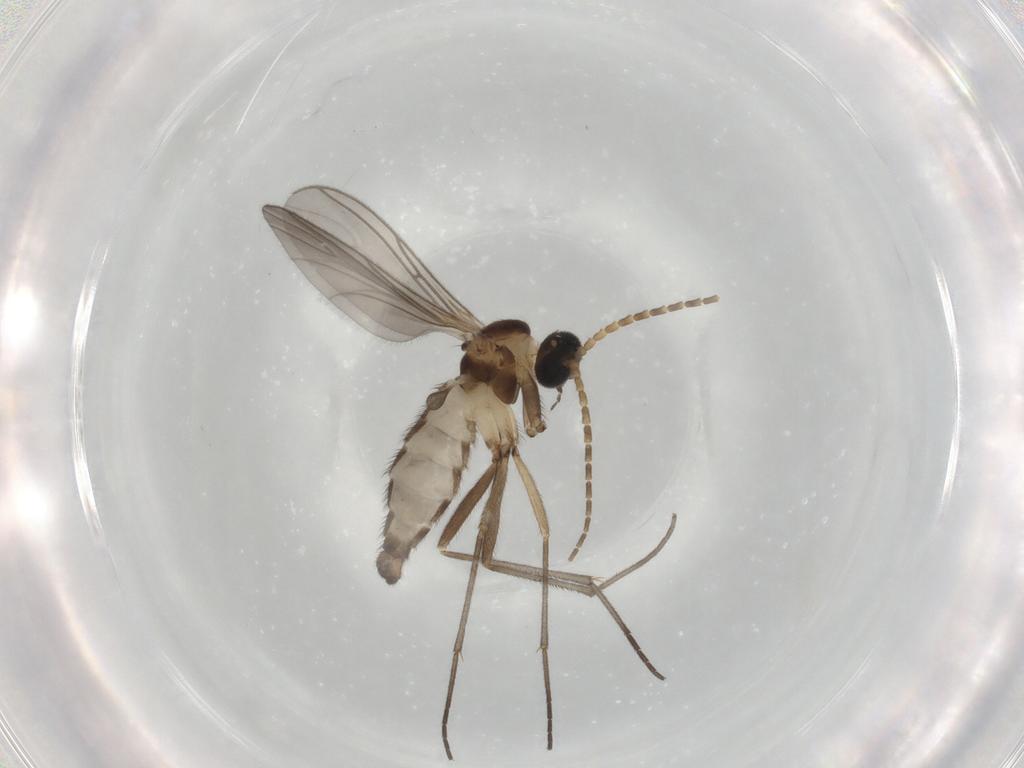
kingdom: Animalia
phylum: Arthropoda
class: Insecta
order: Diptera
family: Sciaridae
